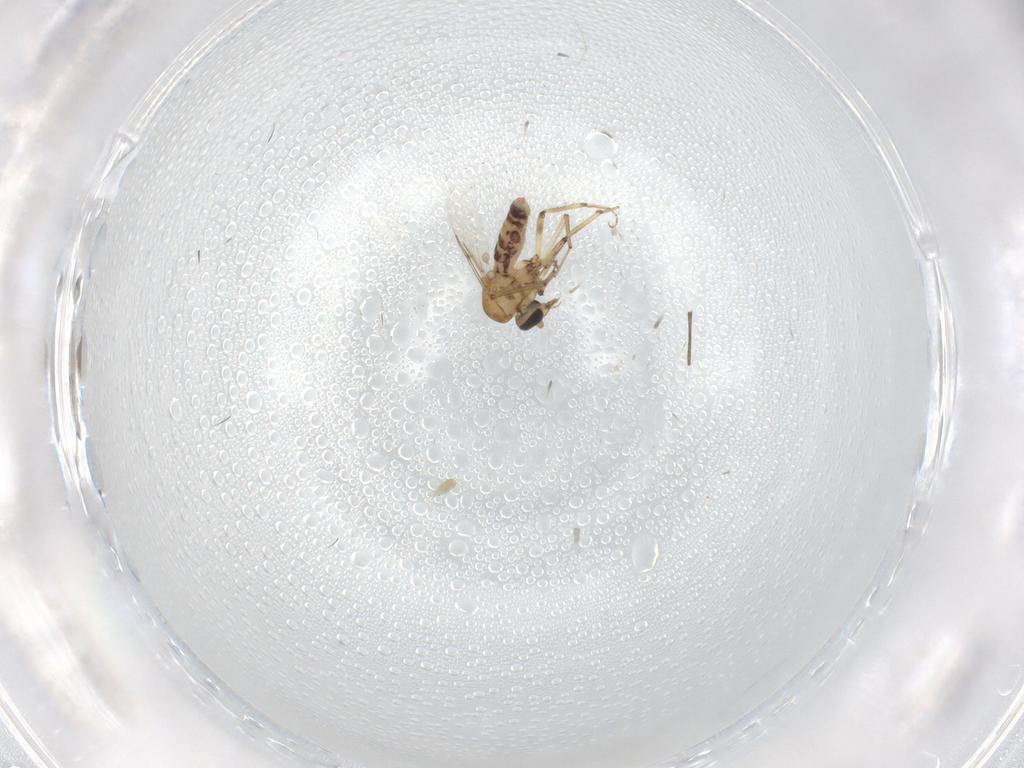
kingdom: Animalia
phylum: Arthropoda
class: Insecta
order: Diptera
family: Ceratopogonidae
